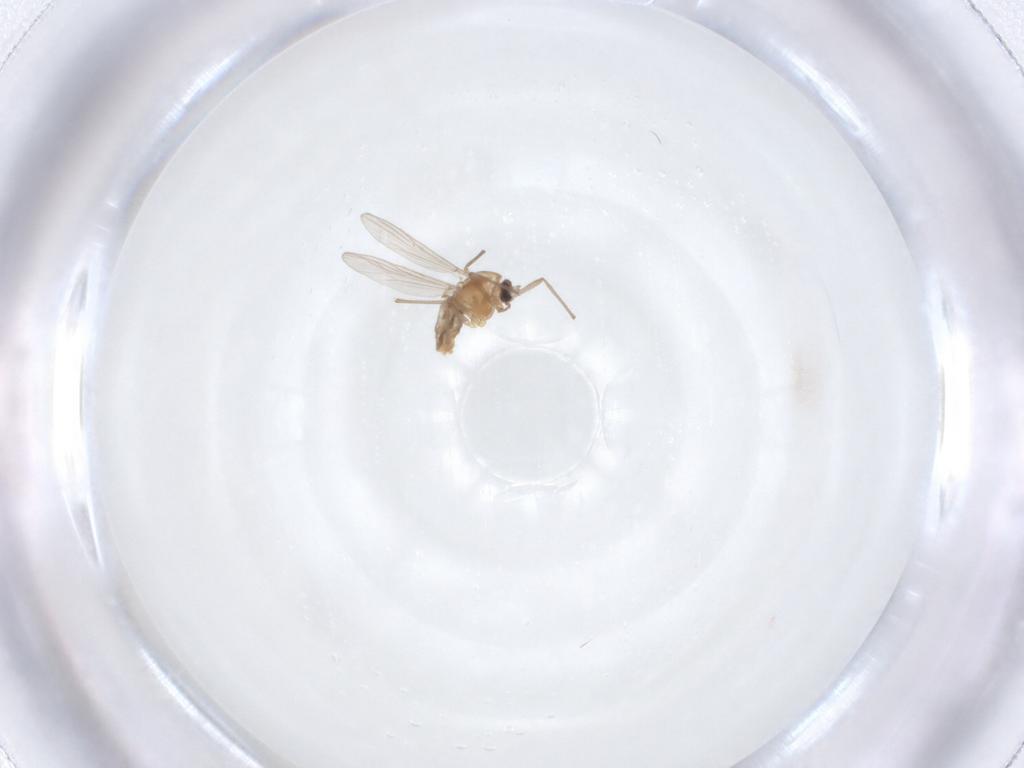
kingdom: Animalia
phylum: Arthropoda
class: Insecta
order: Diptera
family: Chironomidae
